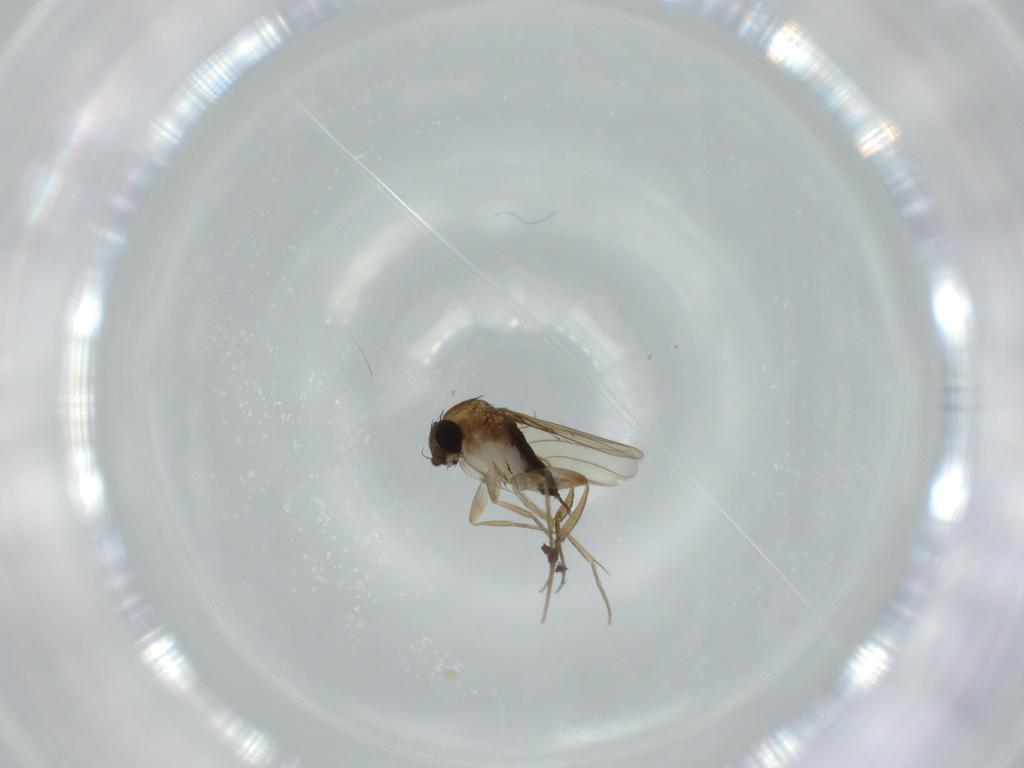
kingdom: Animalia
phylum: Arthropoda
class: Insecta
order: Diptera
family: Phoridae
